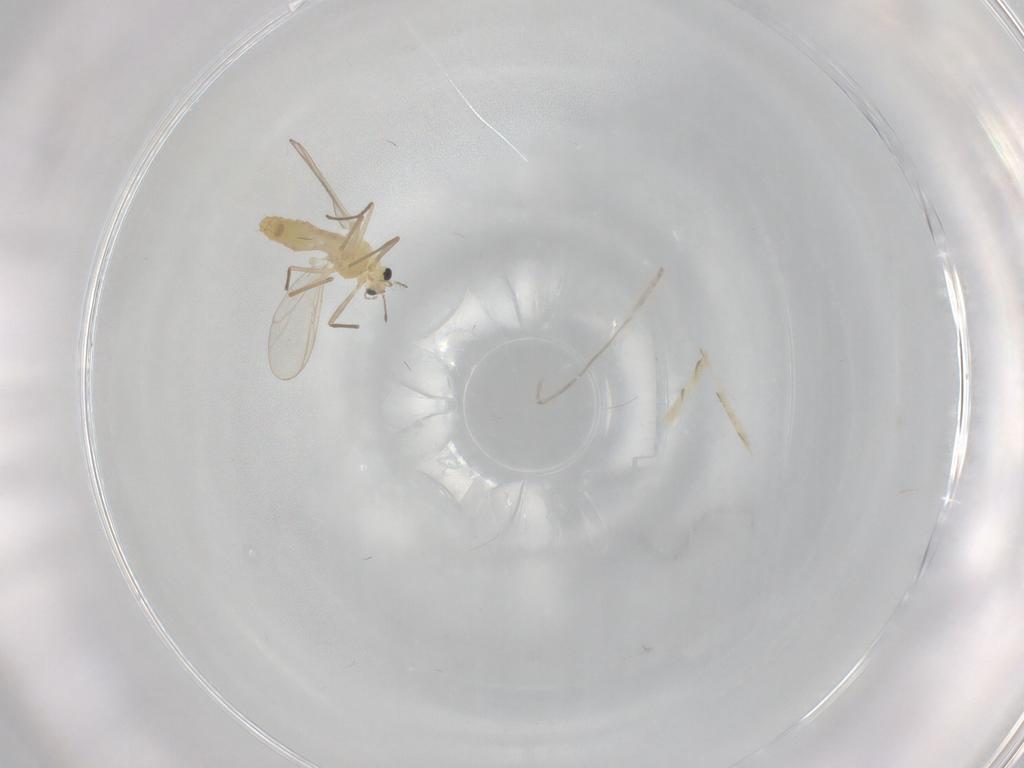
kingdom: Animalia
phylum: Arthropoda
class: Insecta
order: Diptera
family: Chironomidae
